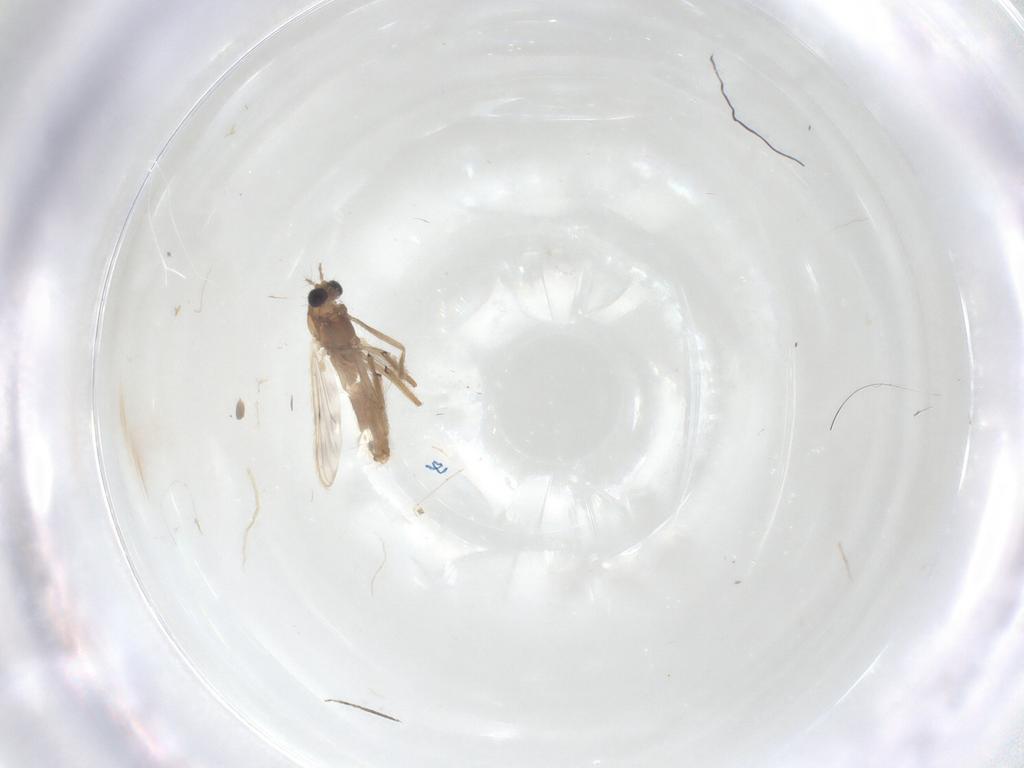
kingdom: Animalia
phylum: Arthropoda
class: Insecta
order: Diptera
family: Chironomidae
